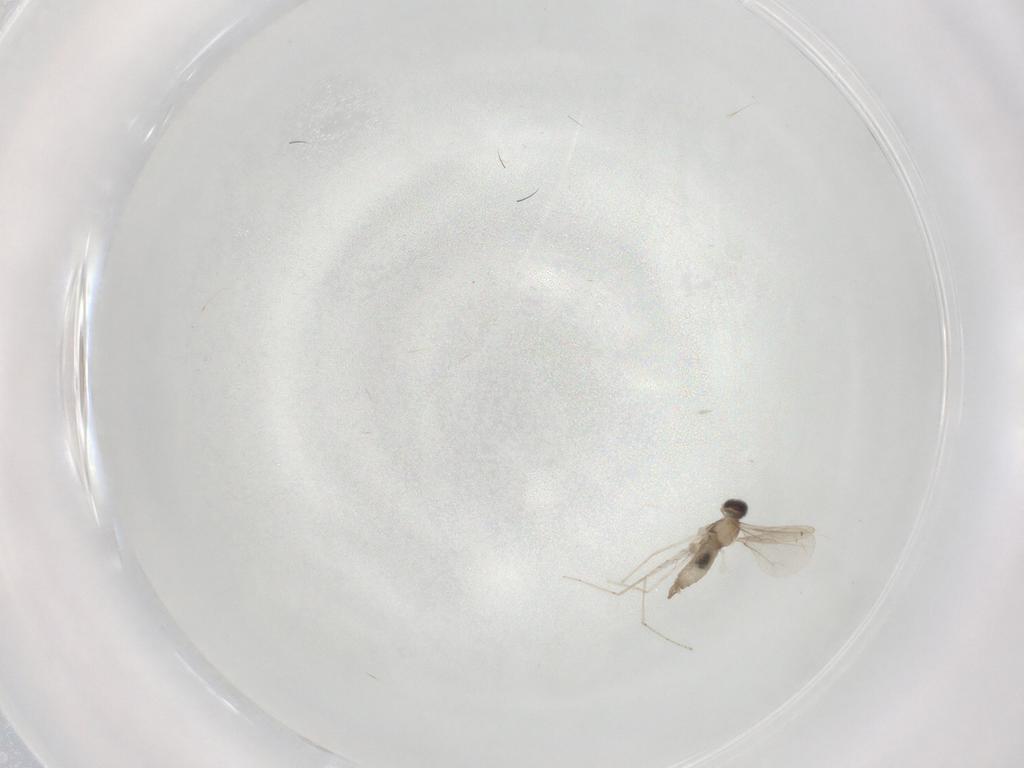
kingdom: Animalia
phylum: Arthropoda
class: Insecta
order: Diptera
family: Cecidomyiidae
